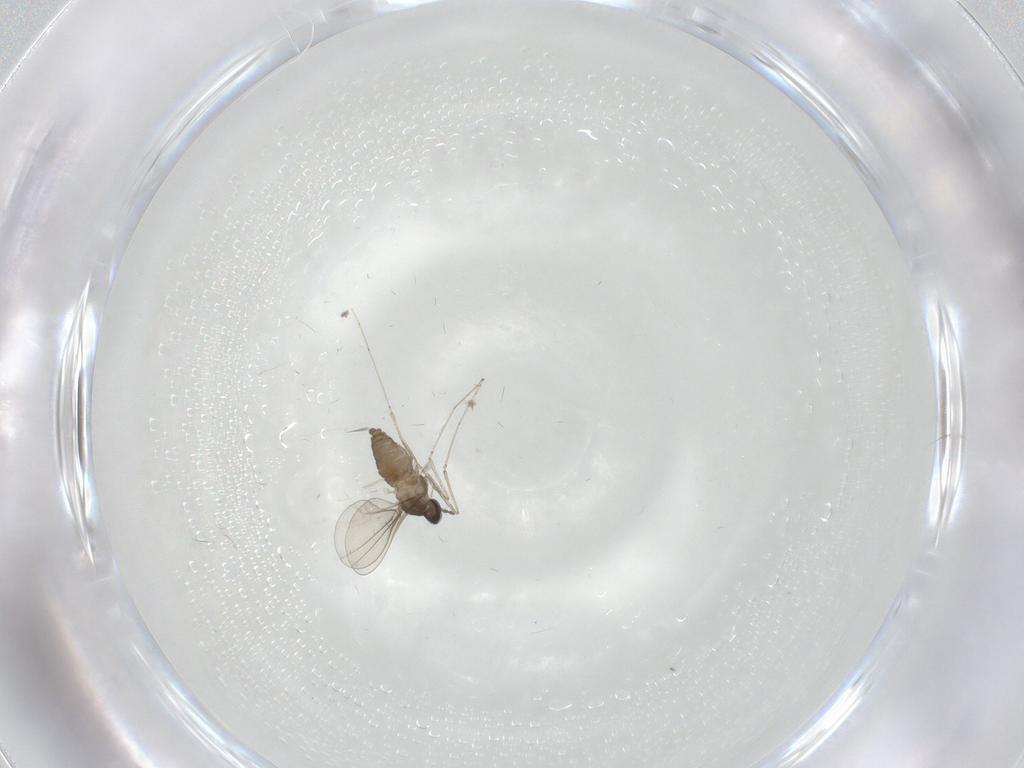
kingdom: Animalia
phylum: Arthropoda
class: Insecta
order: Diptera
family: Cecidomyiidae
